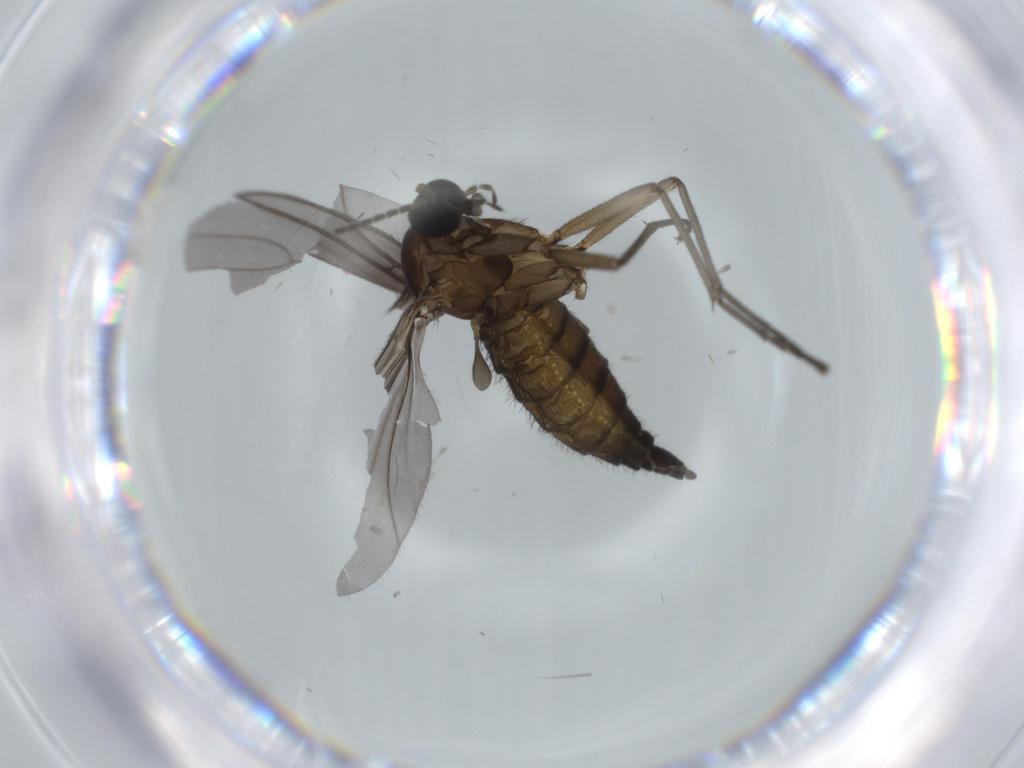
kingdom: Animalia
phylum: Arthropoda
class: Insecta
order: Diptera
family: Sciaridae
